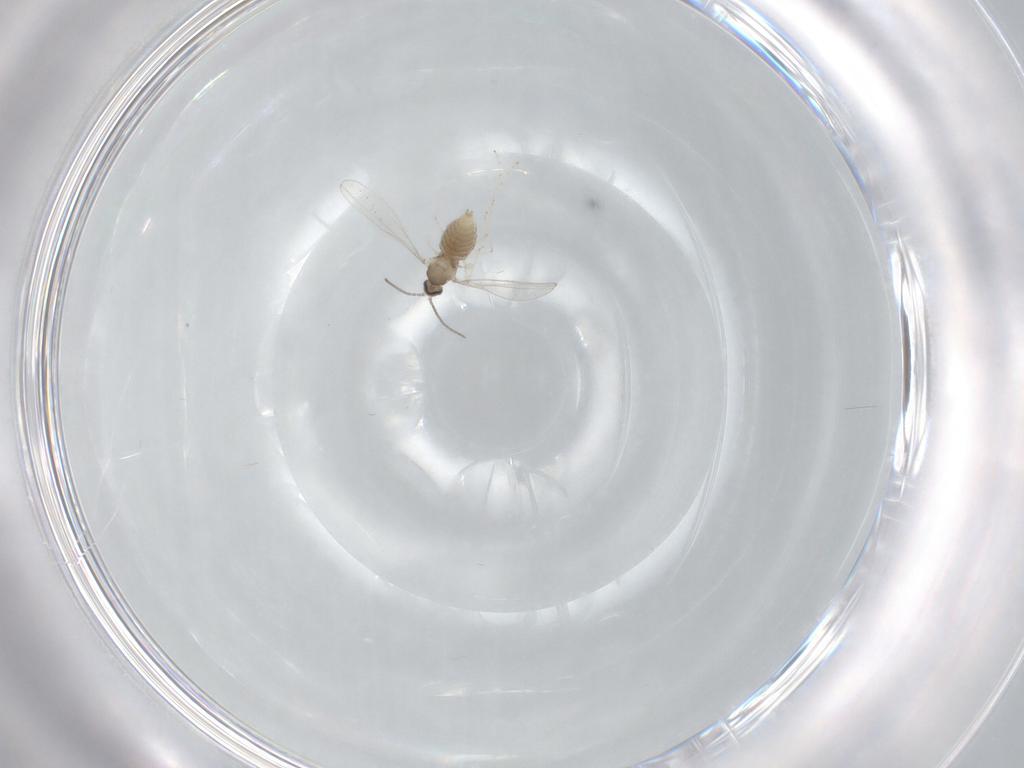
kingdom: Animalia
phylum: Arthropoda
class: Insecta
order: Diptera
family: Cecidomyiidae
